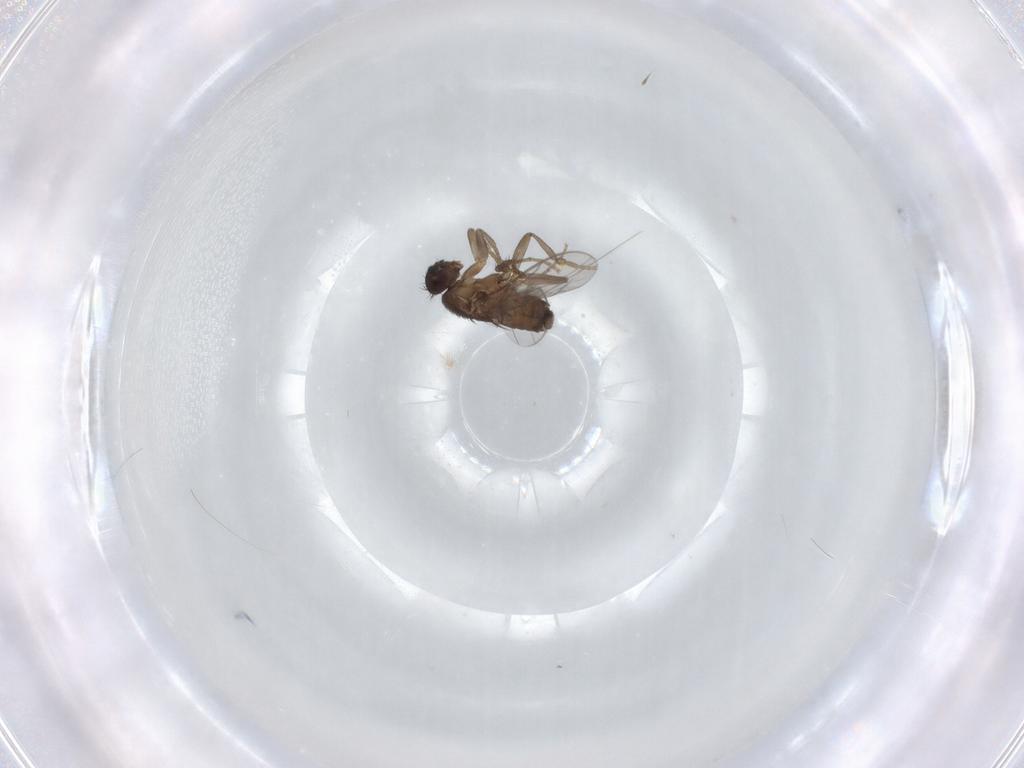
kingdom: Animalia
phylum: Arthropoda
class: Insecta
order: Diptera
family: Sphaeroceridae
